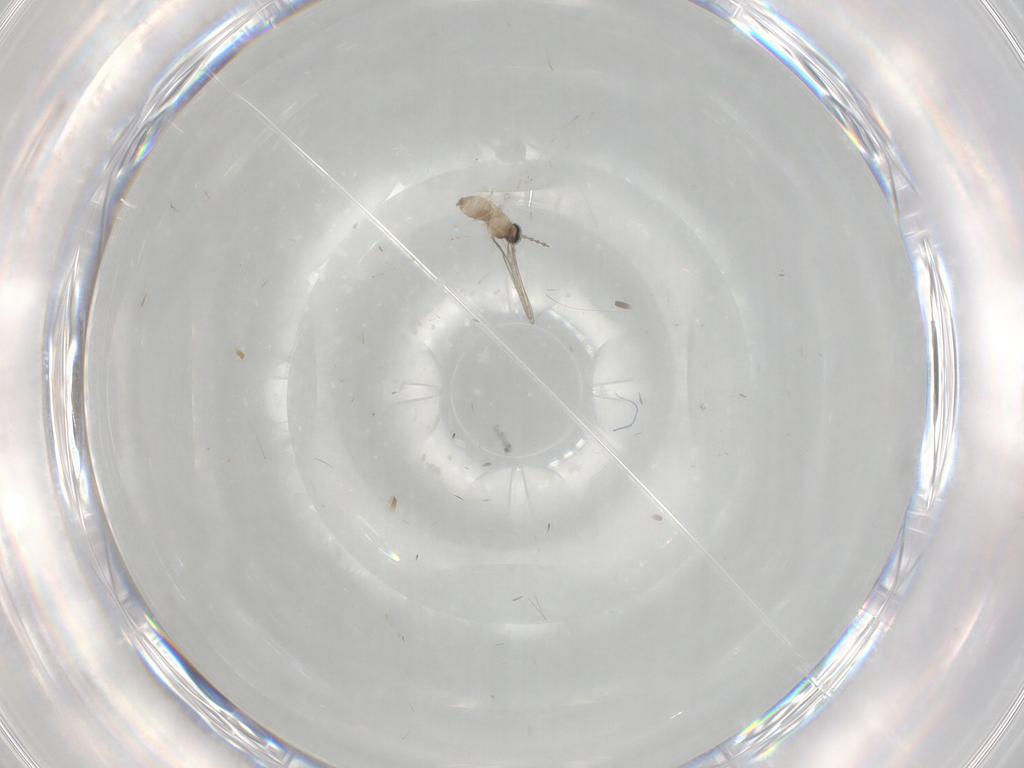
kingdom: Animalia
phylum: Arthropoda
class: Insecta
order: Diptera
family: Cecidomyiidae
